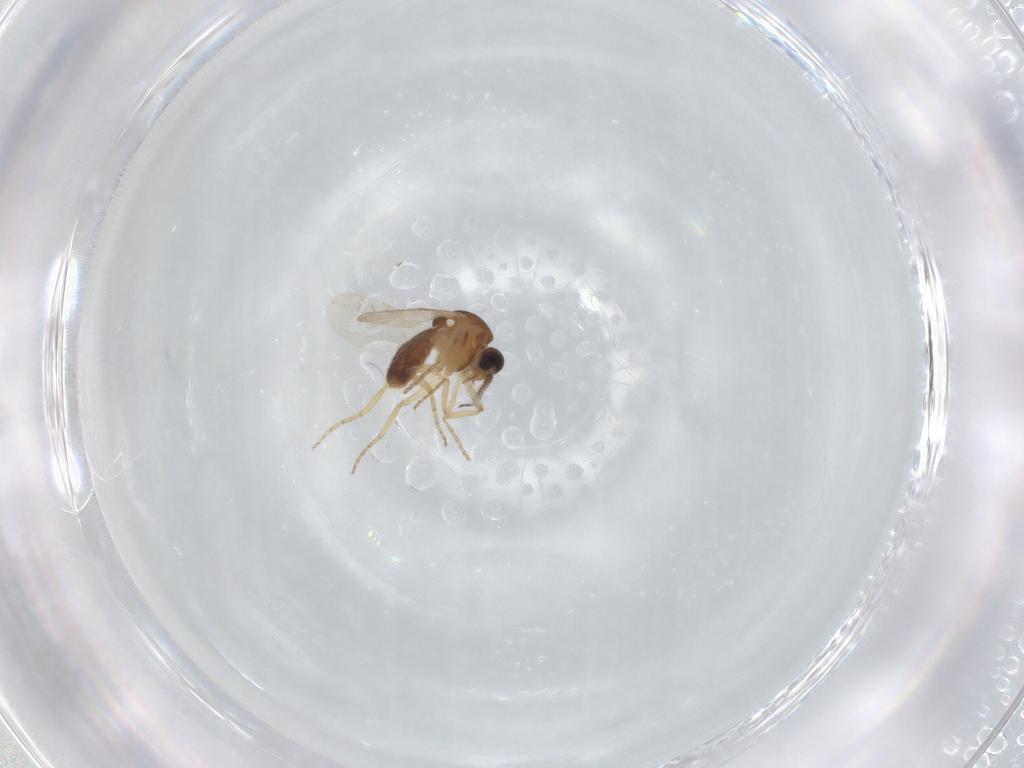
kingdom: Animalia
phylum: Arthropoda
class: Insecta
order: Diptera
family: Ceratopogonidae
